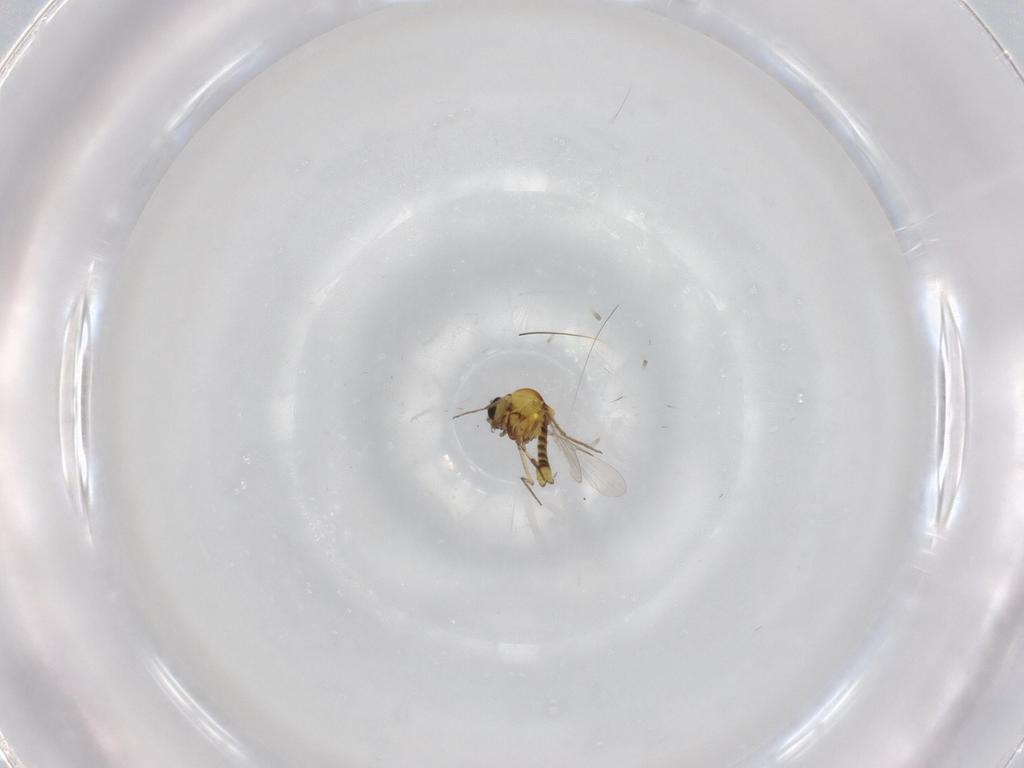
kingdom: Animalia
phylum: Arthropoda
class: Insecta
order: Diptera
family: Ceratopogonidae
